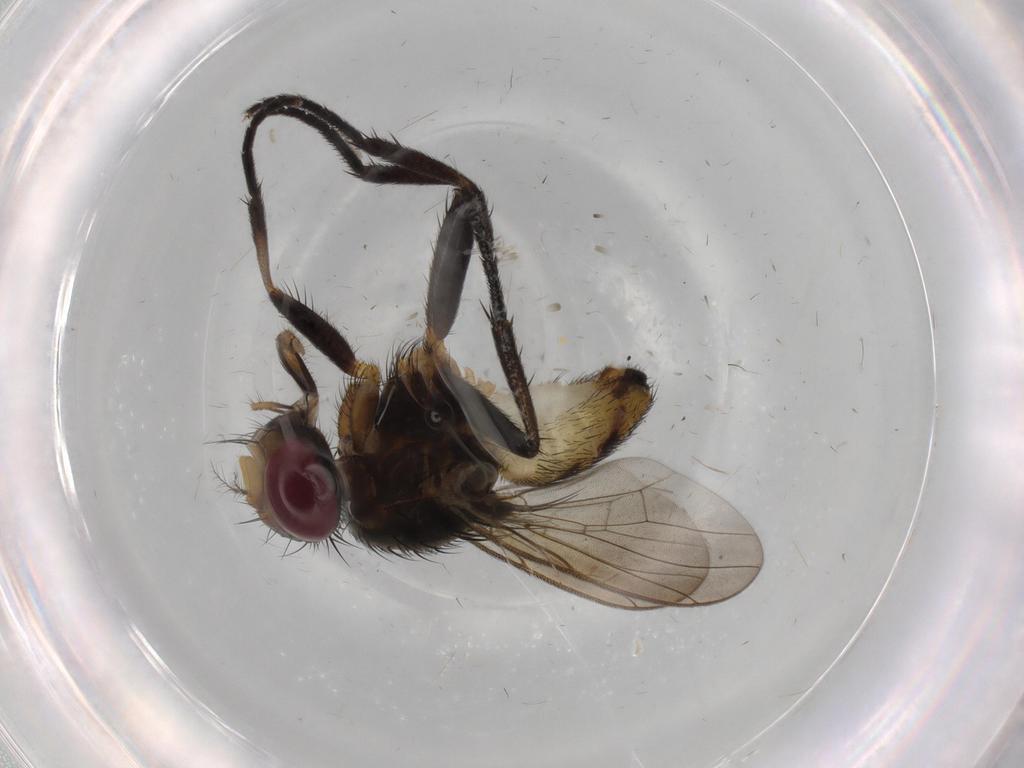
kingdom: Animalia
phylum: Arthropoda
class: Insecta
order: Diptera
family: Anthomyiidae
